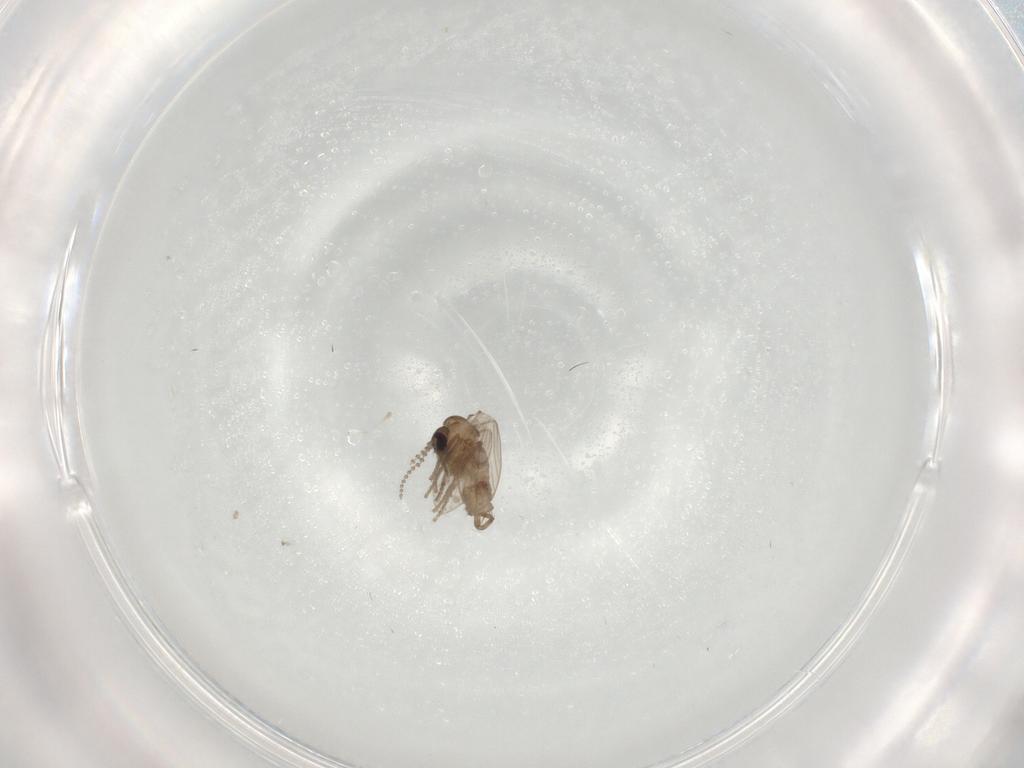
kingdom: Animalia
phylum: Arthropoda
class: Insecta
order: Diptera
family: Psychodidae
